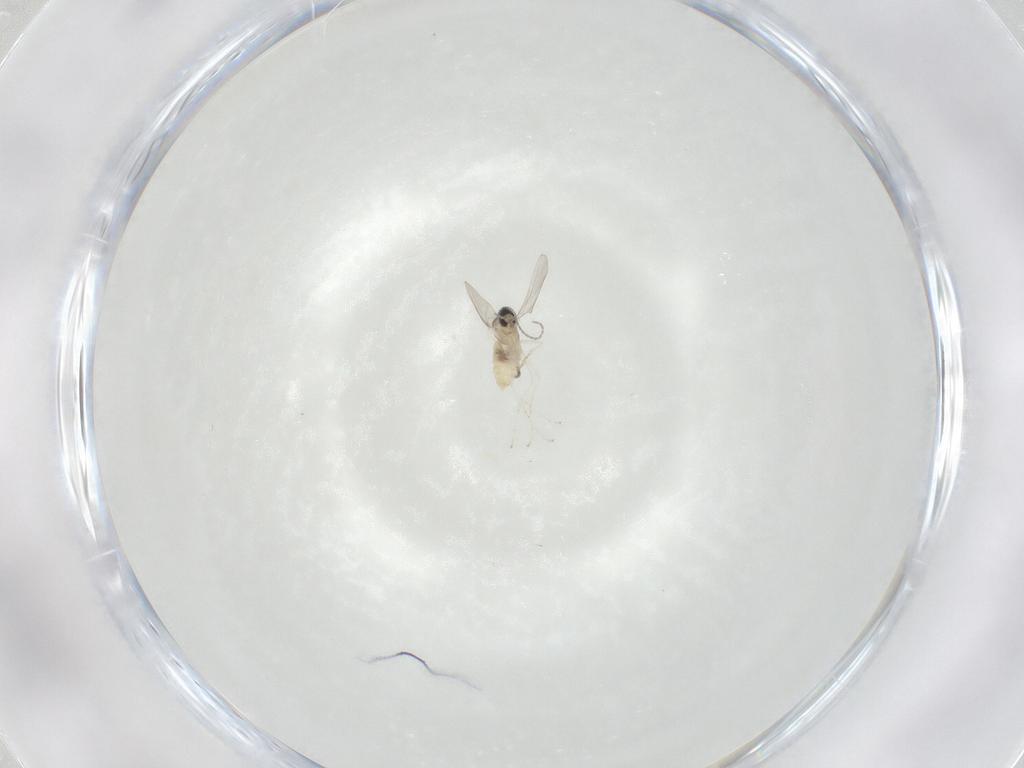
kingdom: Animalia
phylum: Arthropoda
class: Insecta
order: Diptera
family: Cecidomyiidae
